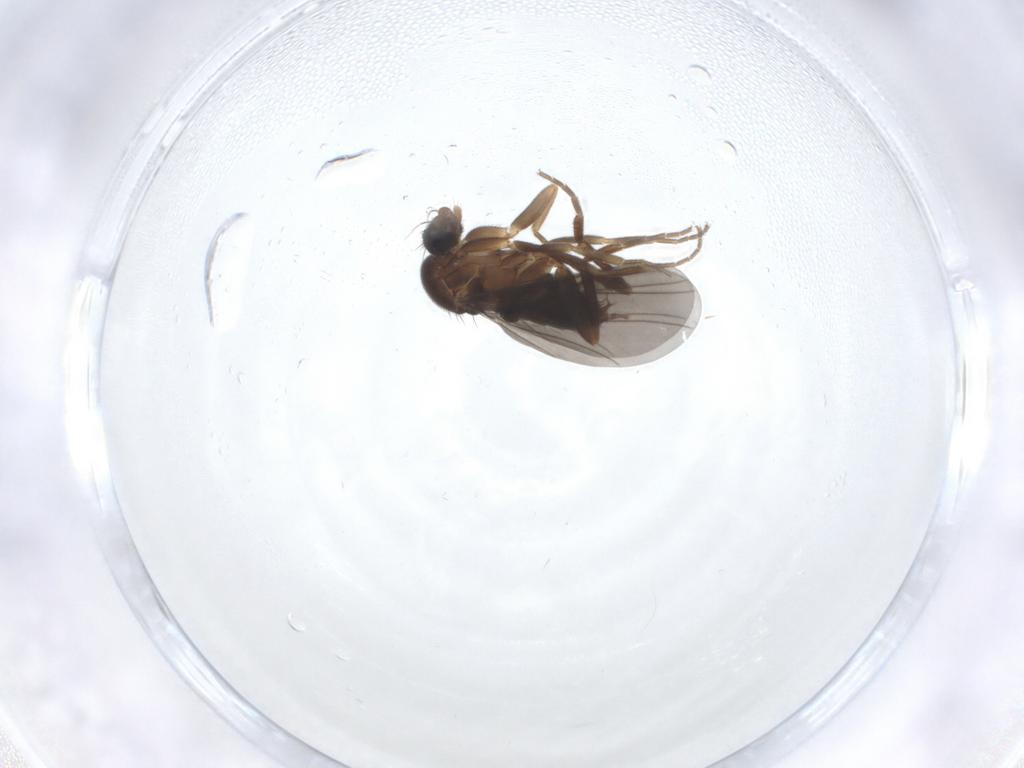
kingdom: Animalia
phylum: Arthropoda
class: Insecta
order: Diptera
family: Phoridae
